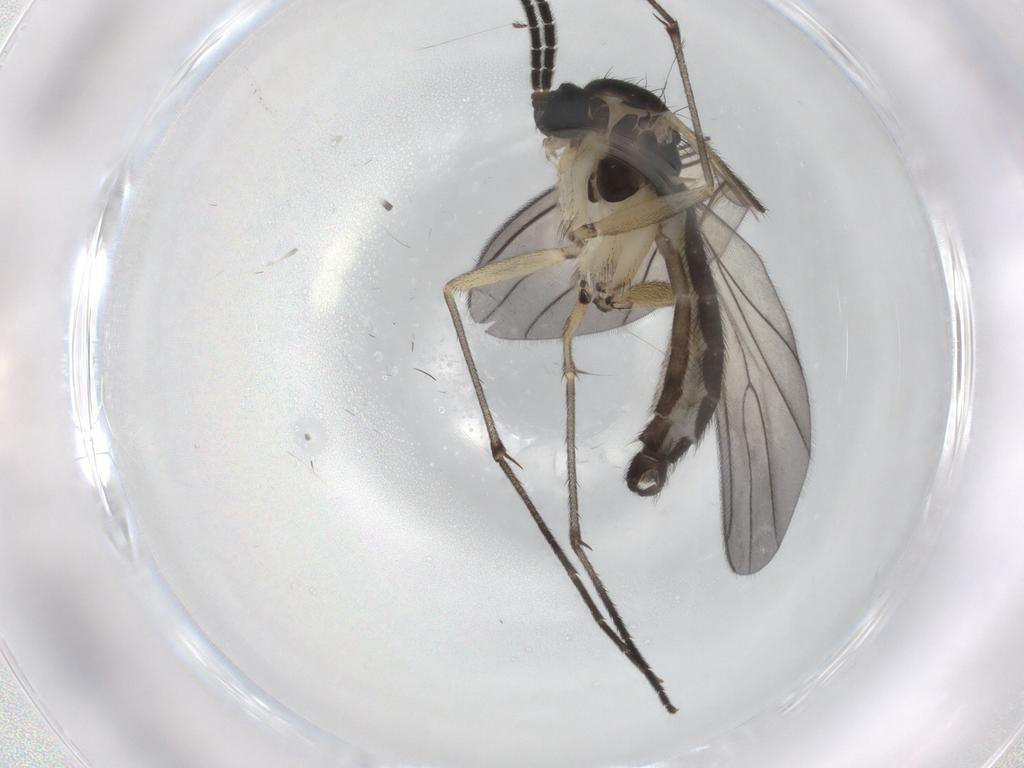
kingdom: Animalia
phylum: Arthropoda
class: Insecta
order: Diptera
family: Sciaridae
